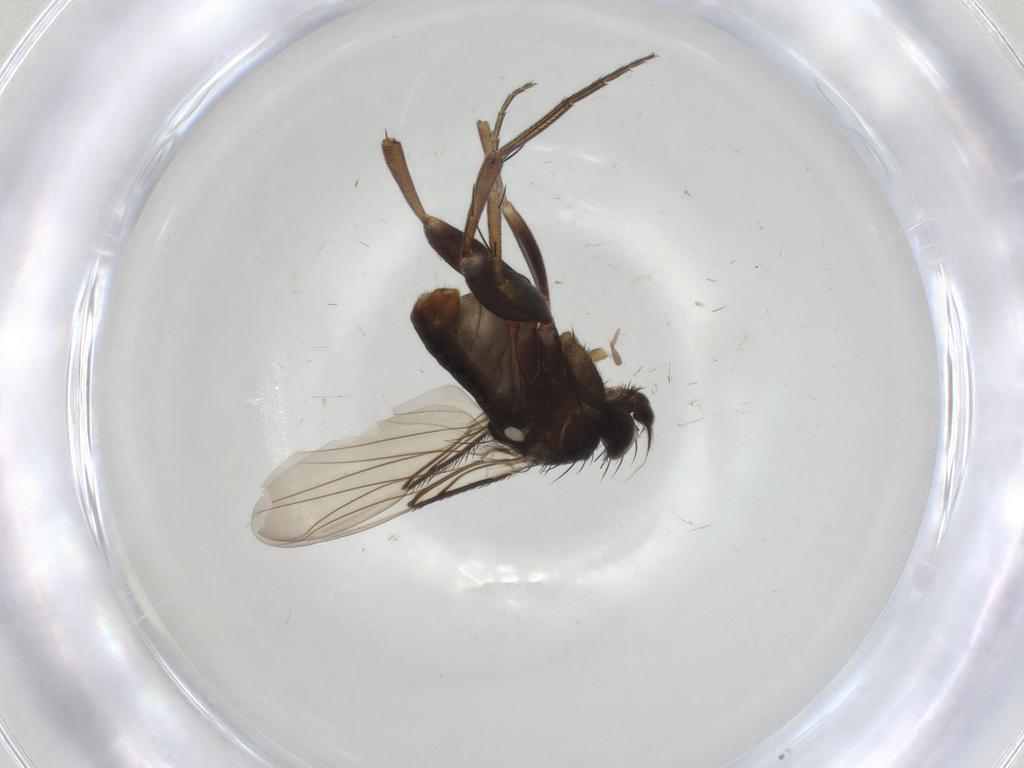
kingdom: Animalia
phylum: Arthropoda
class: Insecta
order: Diptera
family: Phoridae
